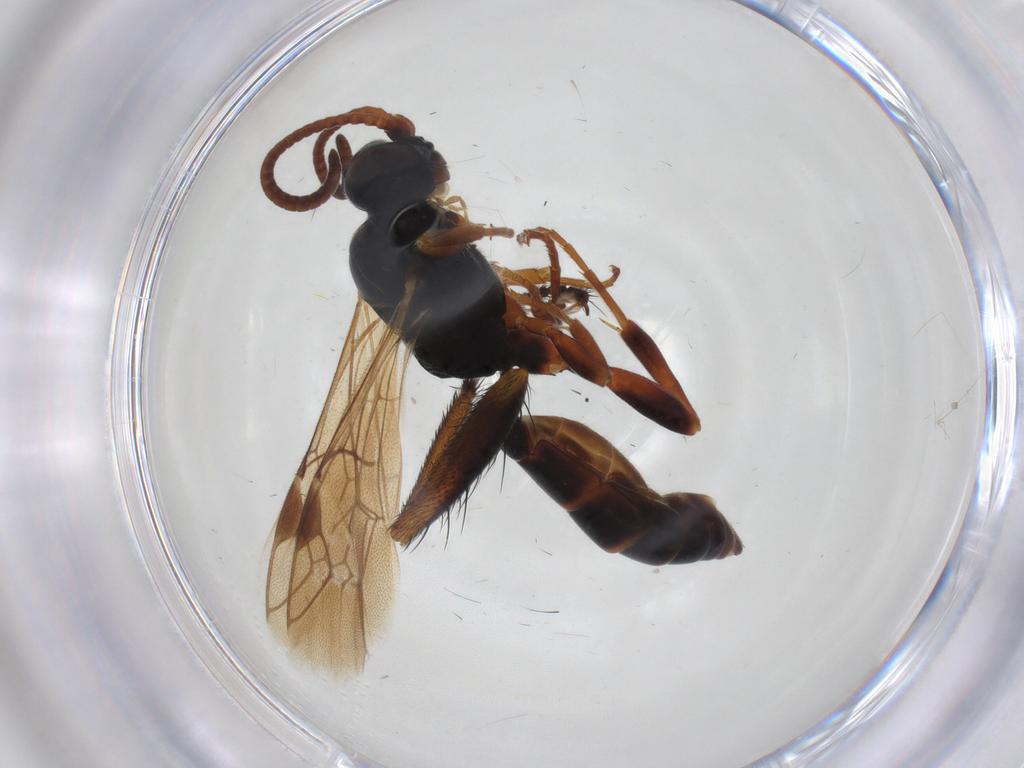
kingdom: Animalia
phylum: Arthropoda
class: Insecta
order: Hymenoptera
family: Ichneumonidae
